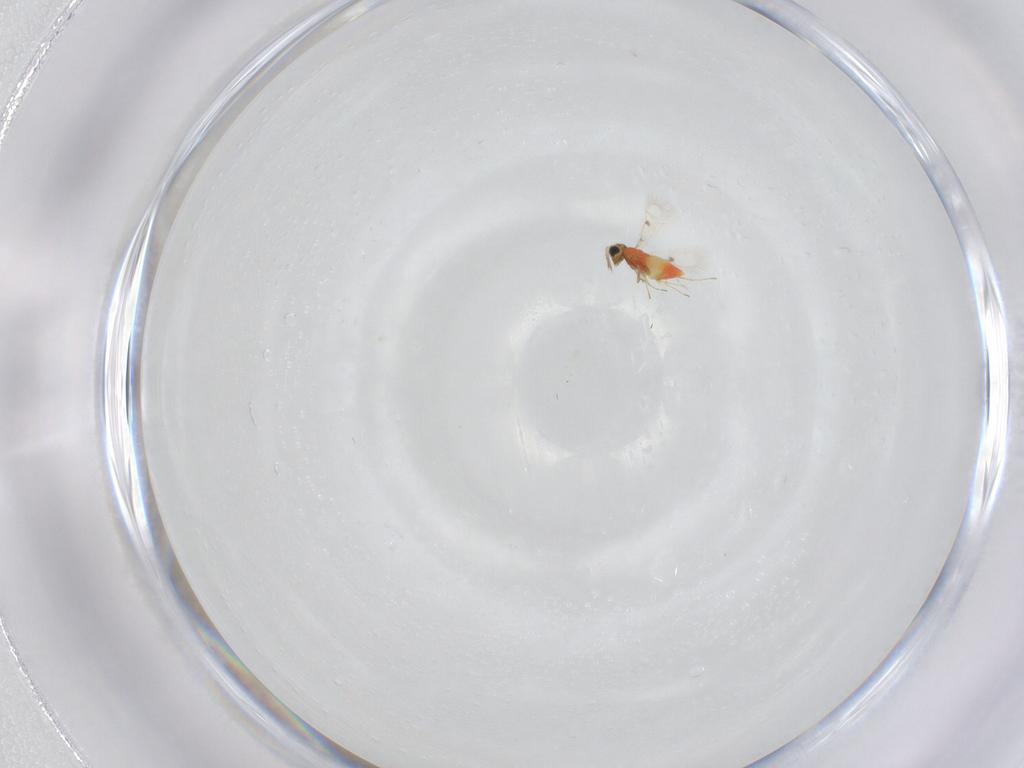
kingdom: Animalia
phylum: Arthropoda
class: Insecta
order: Hymenoptera
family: Trichogrammatidae
